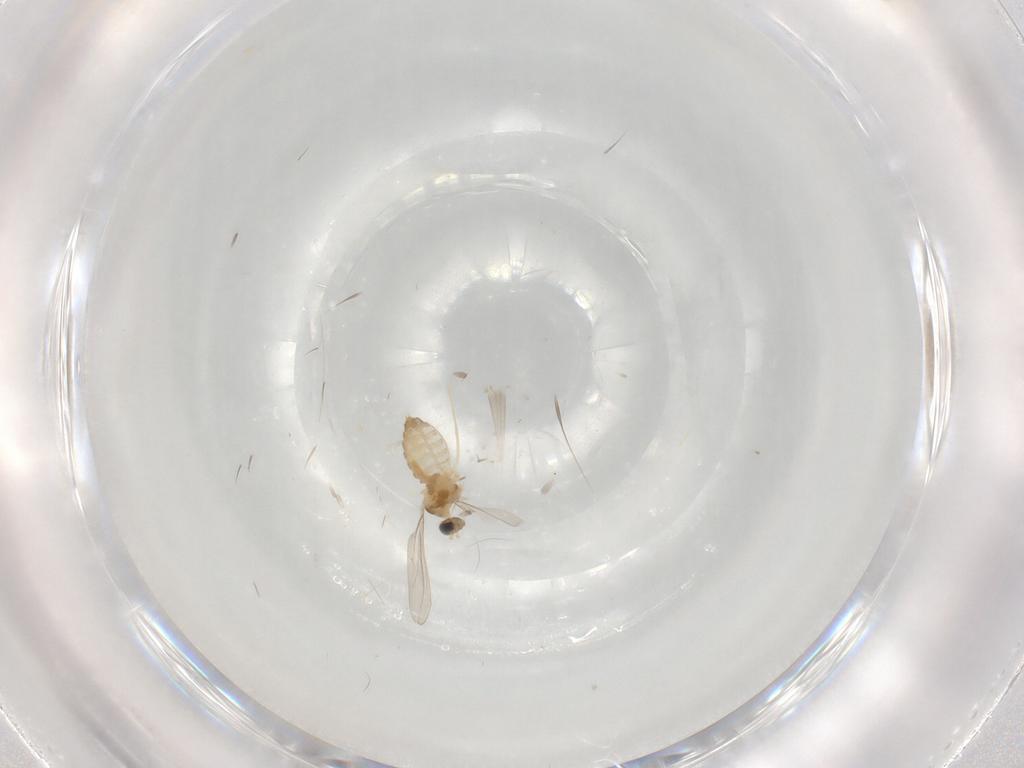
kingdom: Animalia
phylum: Arthropoda
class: Insecta
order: Diptera
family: Cecidomyiidae
